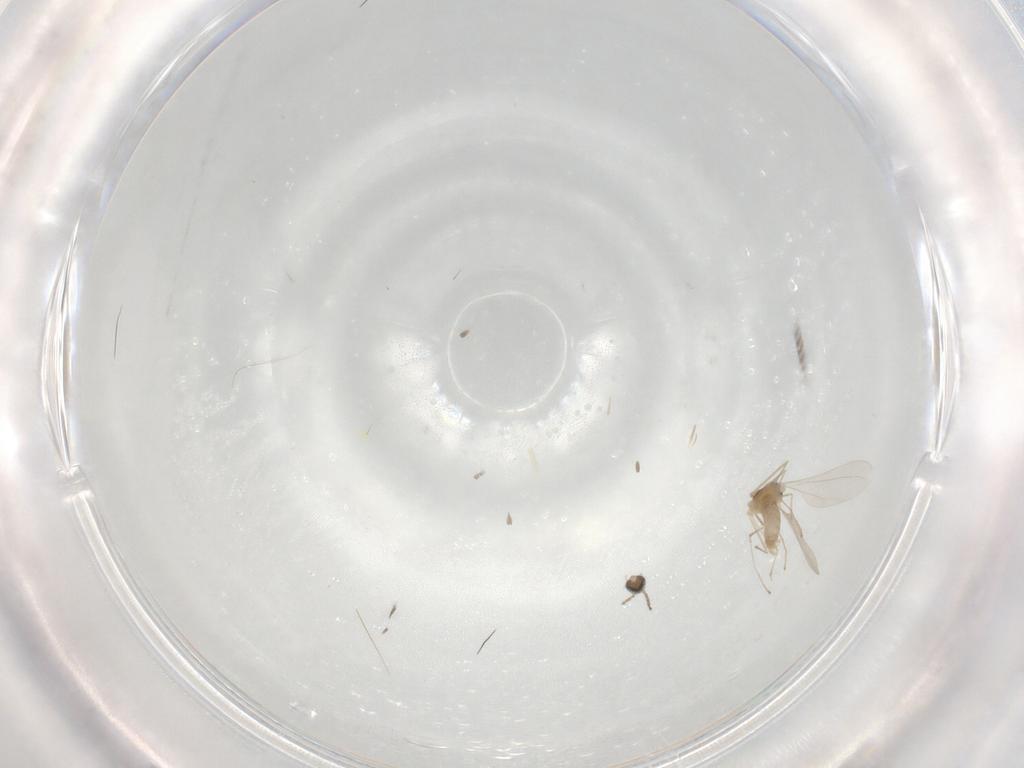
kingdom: Animalia
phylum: Arthropoda
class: Insecta
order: Diptera
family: Cecidomyiidae
